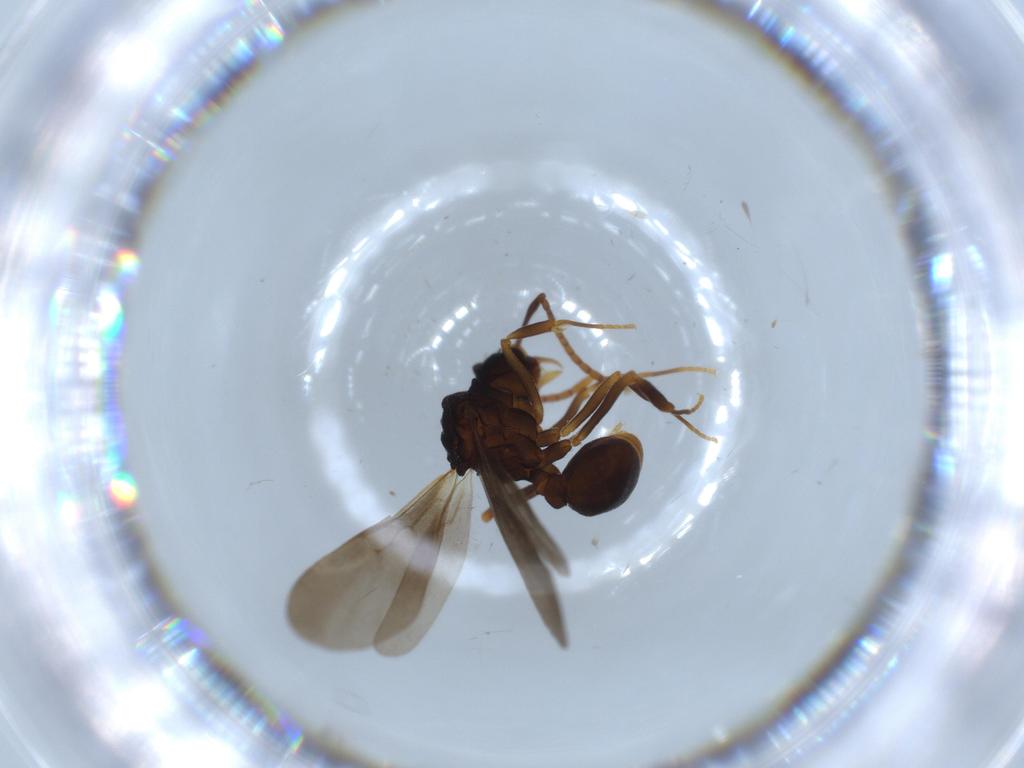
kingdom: Animalia
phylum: Arthropoda
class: Insecta
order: Hymenoptera
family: Formicidae
